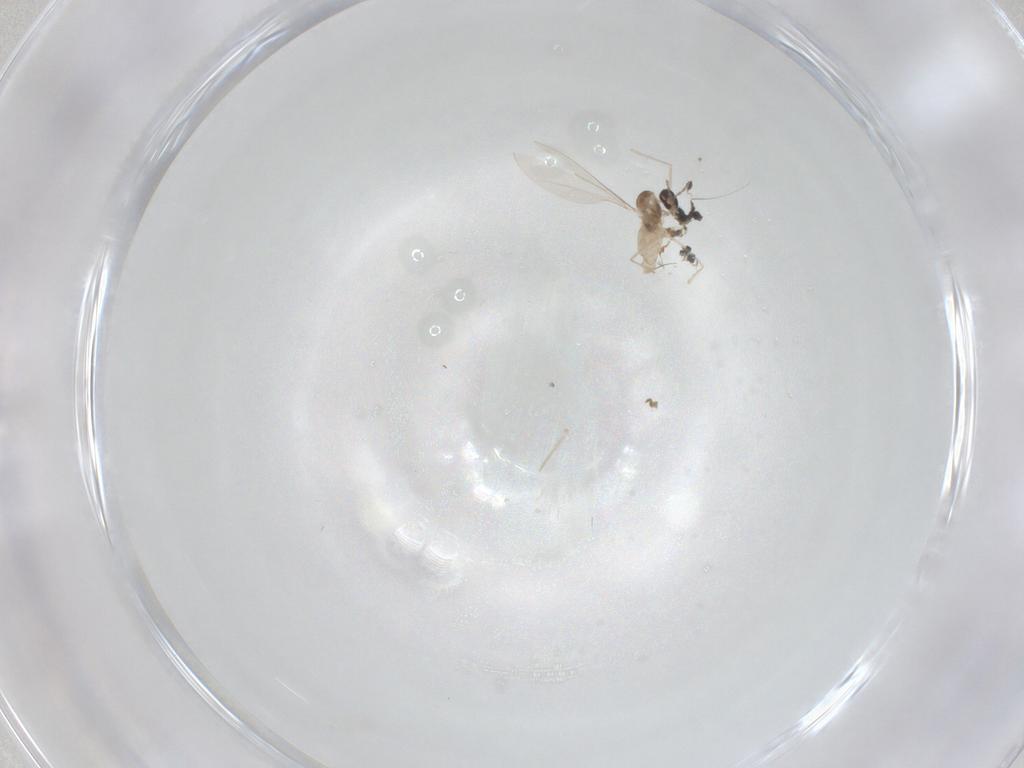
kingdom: Animalia
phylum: Arthropoda
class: Insecta
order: Diptera
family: Cecidomyiidae
